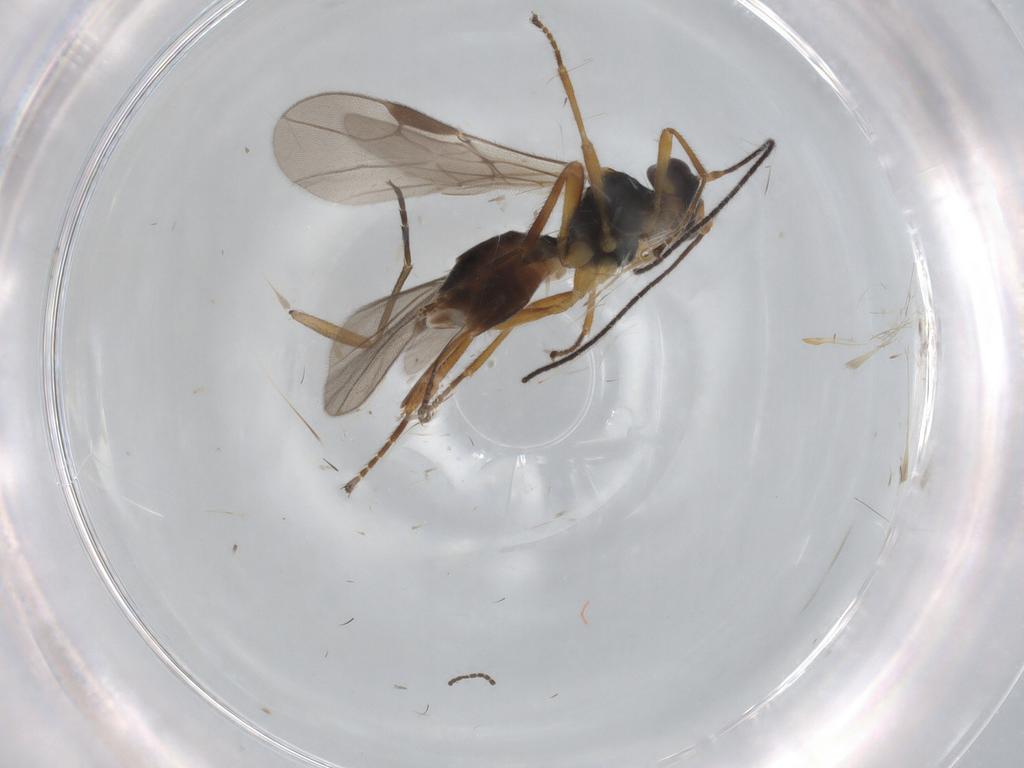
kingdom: Animalia
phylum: Arthropoda
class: Insecta
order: Hymenoptera
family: Braconidae
